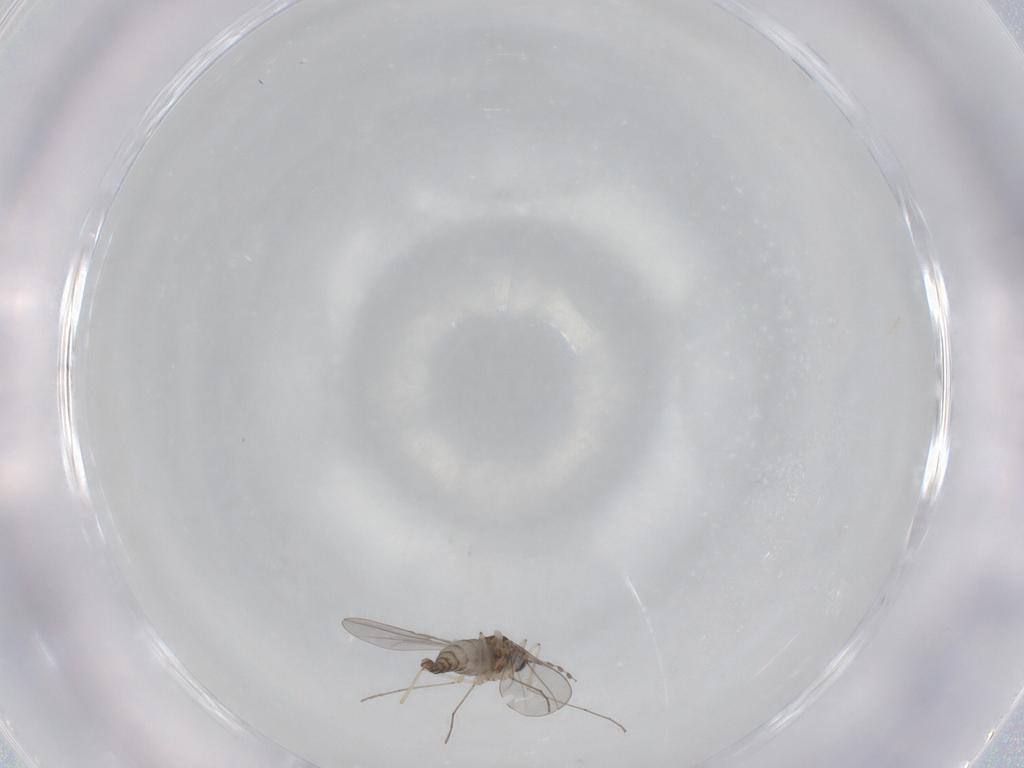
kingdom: Animalia
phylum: Arthropoda
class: Insecta
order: Diptera
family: Cecidomyiidae
